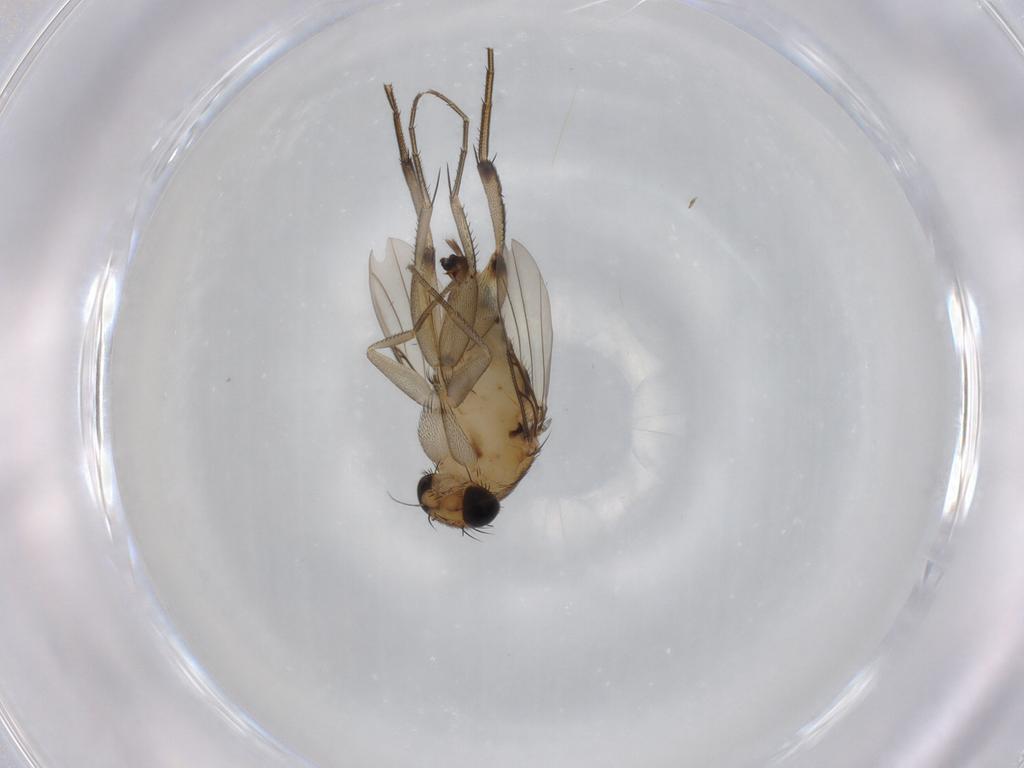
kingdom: Animalia
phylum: Arthropoda
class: Insecta
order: Diptera
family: Phoridae
